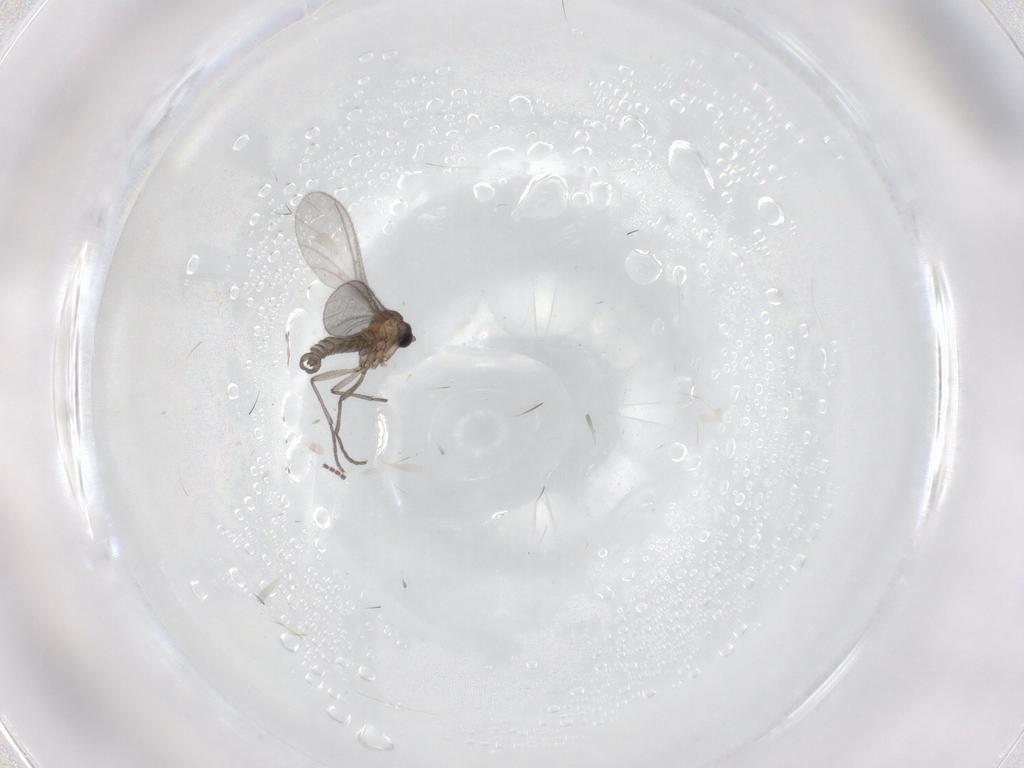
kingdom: Animalia
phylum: Arthropoda
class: Insecta
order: Diptera
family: Sciaridae
